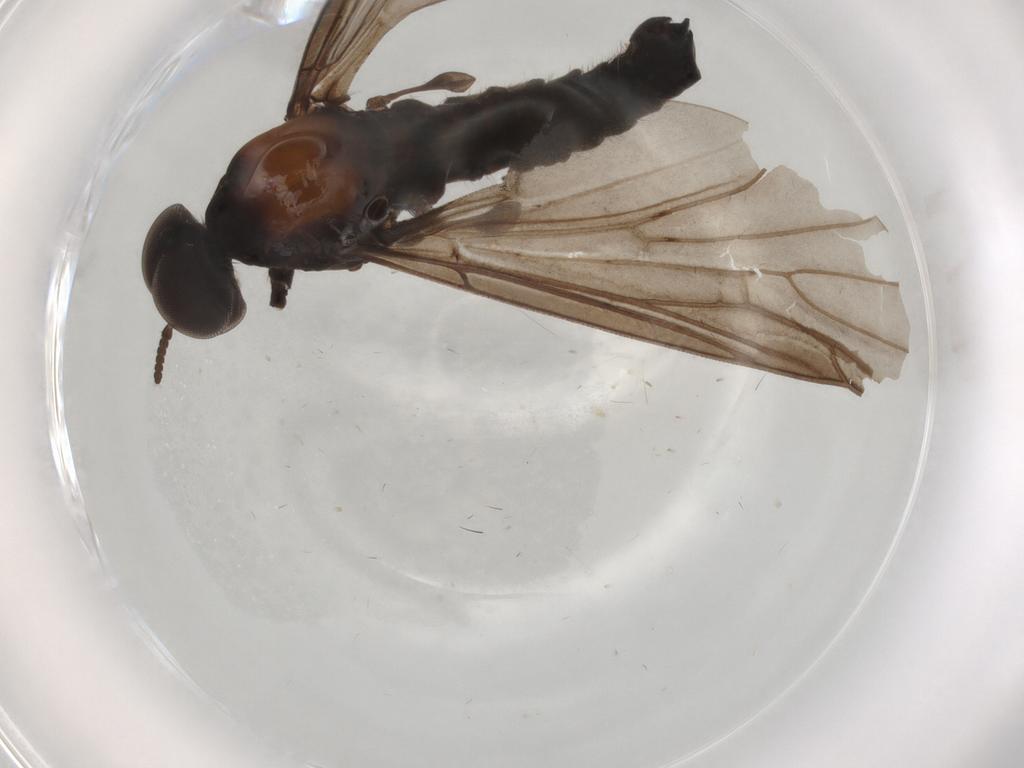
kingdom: Animalia
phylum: Arthropoda
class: Insecta
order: Diptera
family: Dolichopodidae
